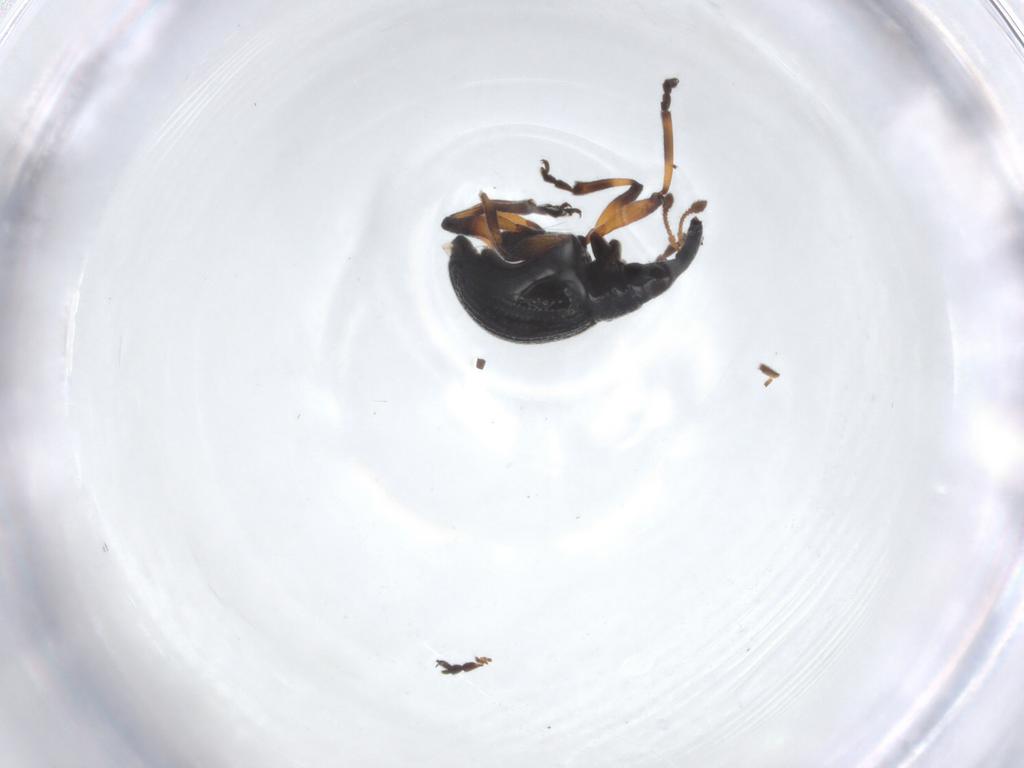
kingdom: Animalia
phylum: Arthropoda
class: Insecta
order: Coleoptera
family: Brentidae
